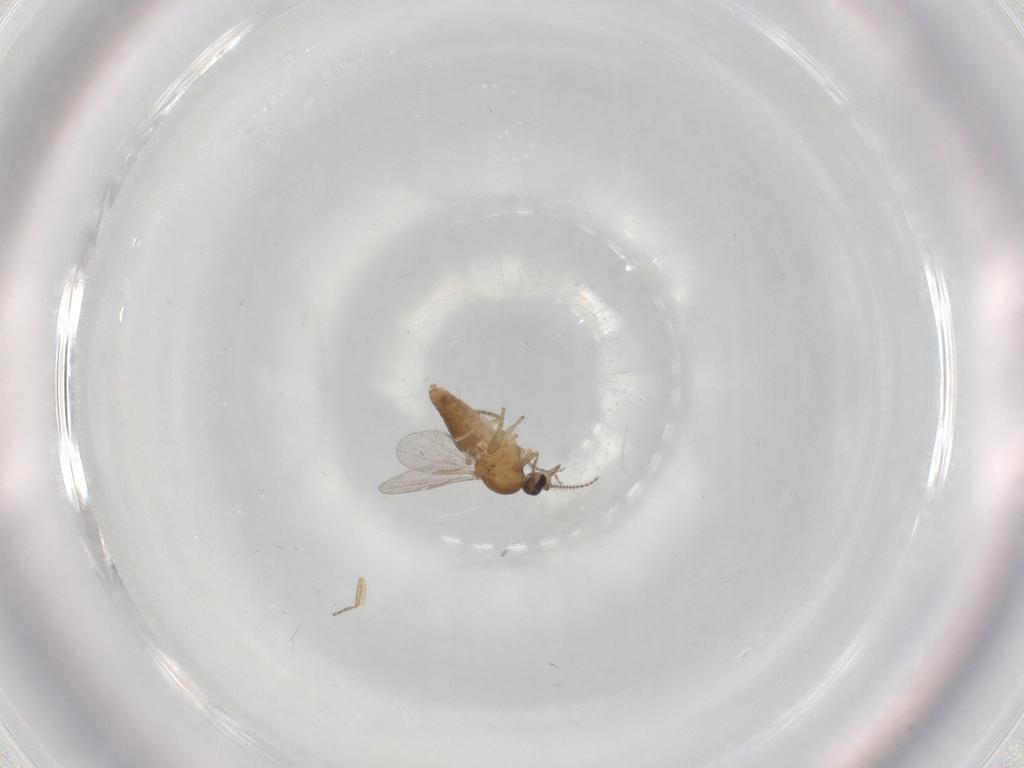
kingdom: Animalia
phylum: Arthropoda
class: Insecta
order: Diptera
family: Ceratopogonidae
